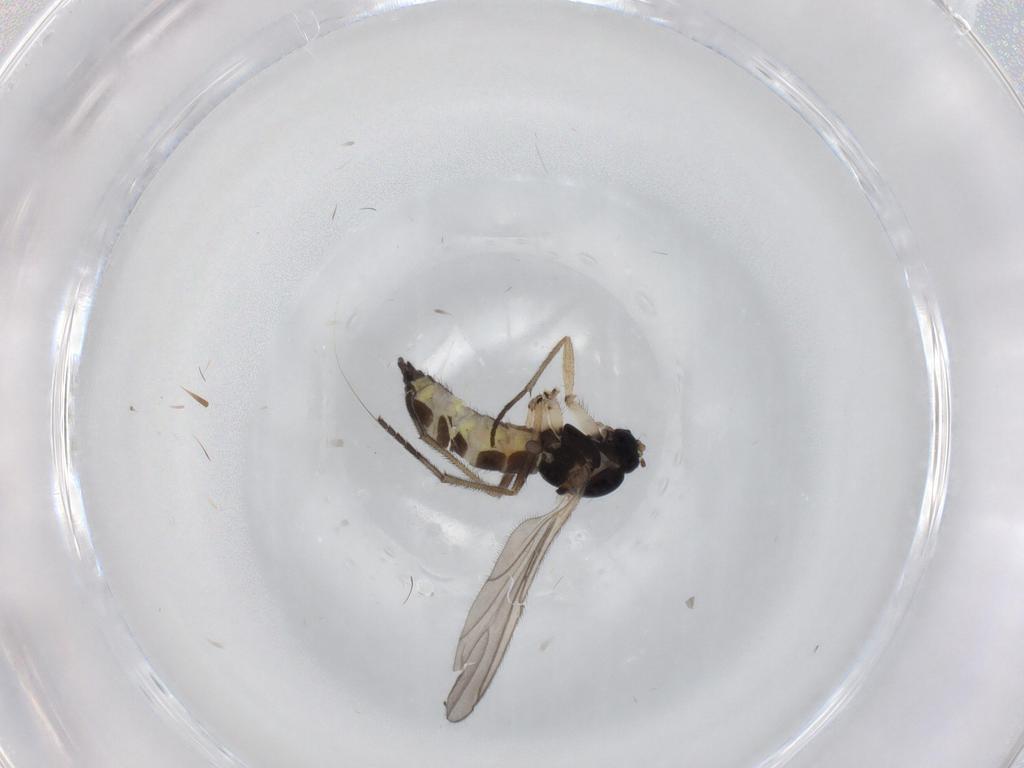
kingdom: Animalia
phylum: Arthropoda
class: Insecta
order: Diptera
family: Sciaridae
